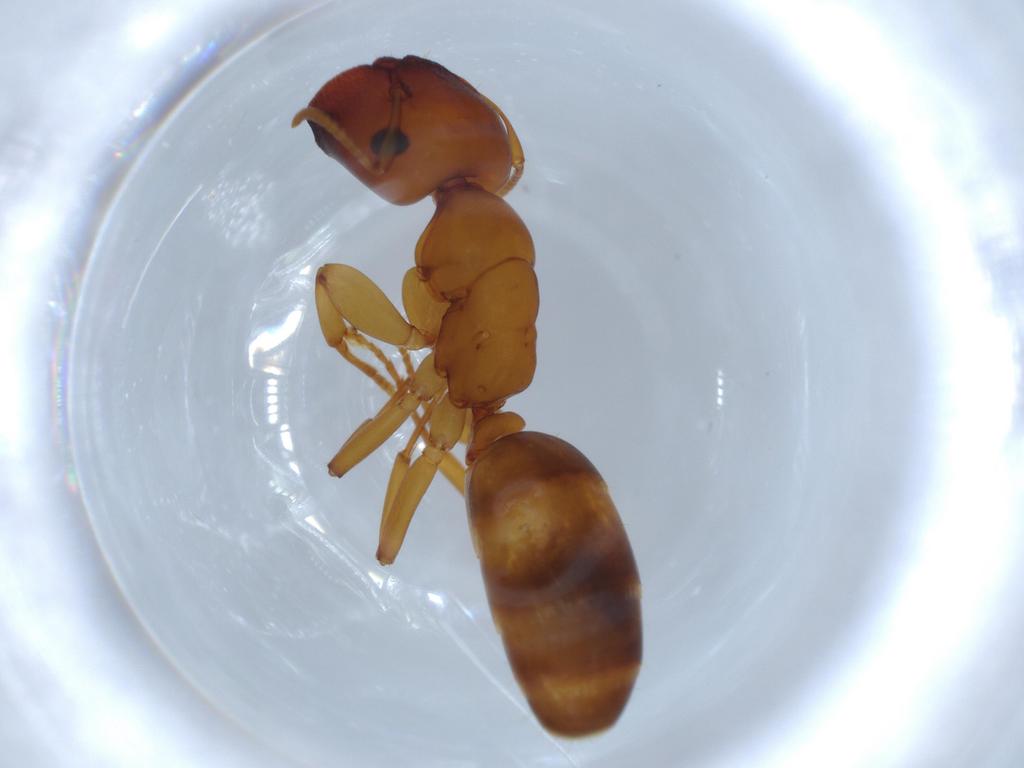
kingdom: Animalia
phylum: Arthropoda
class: Insecta
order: Hymenoptera
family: Formicidae
